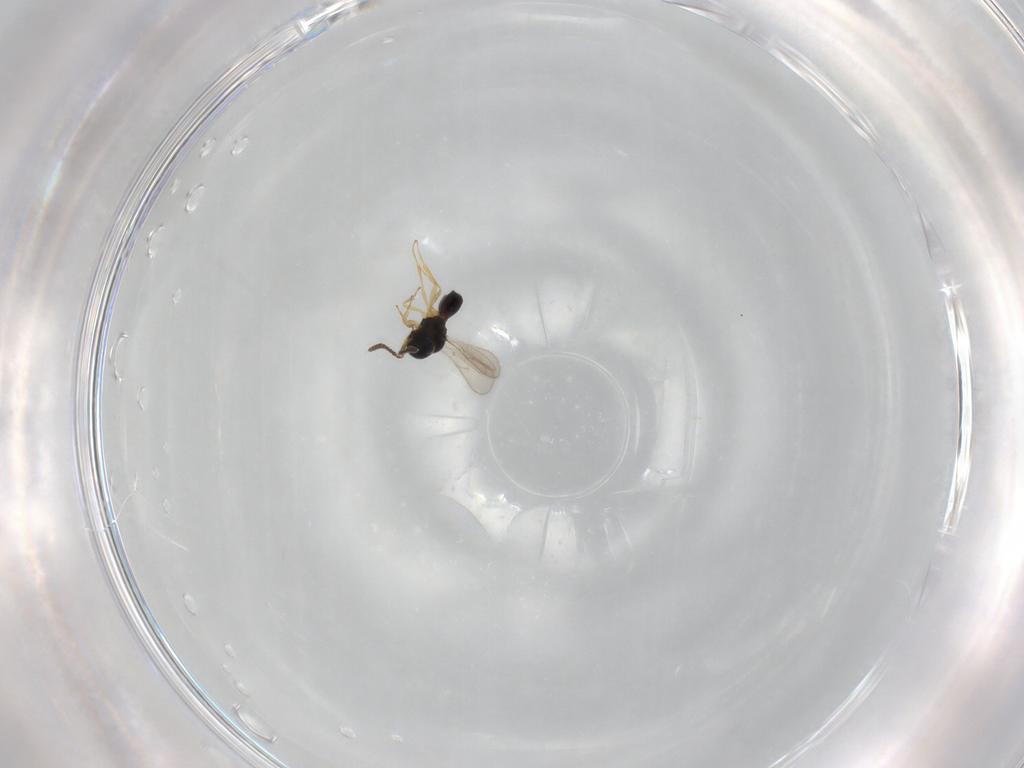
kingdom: Animalia
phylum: Arthropoda
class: Insecta
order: Hymenoptera
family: Scelionidae
